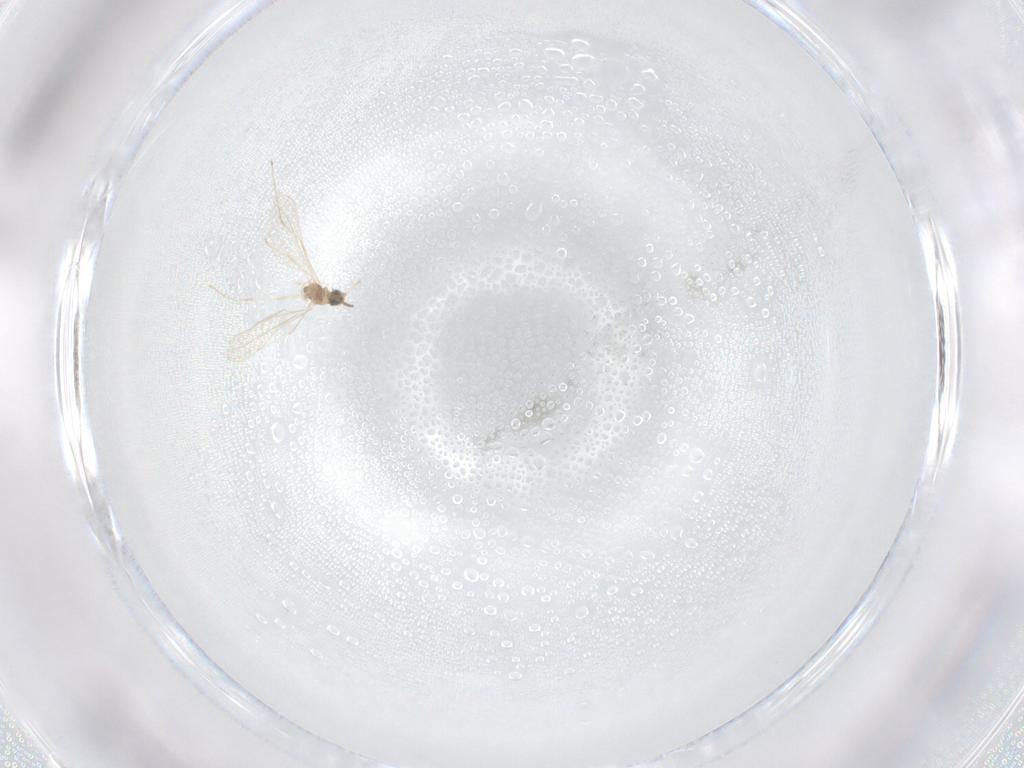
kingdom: Animalia
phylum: Arthropoda
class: Insecta
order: Diptera
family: Cecidomyiidae
